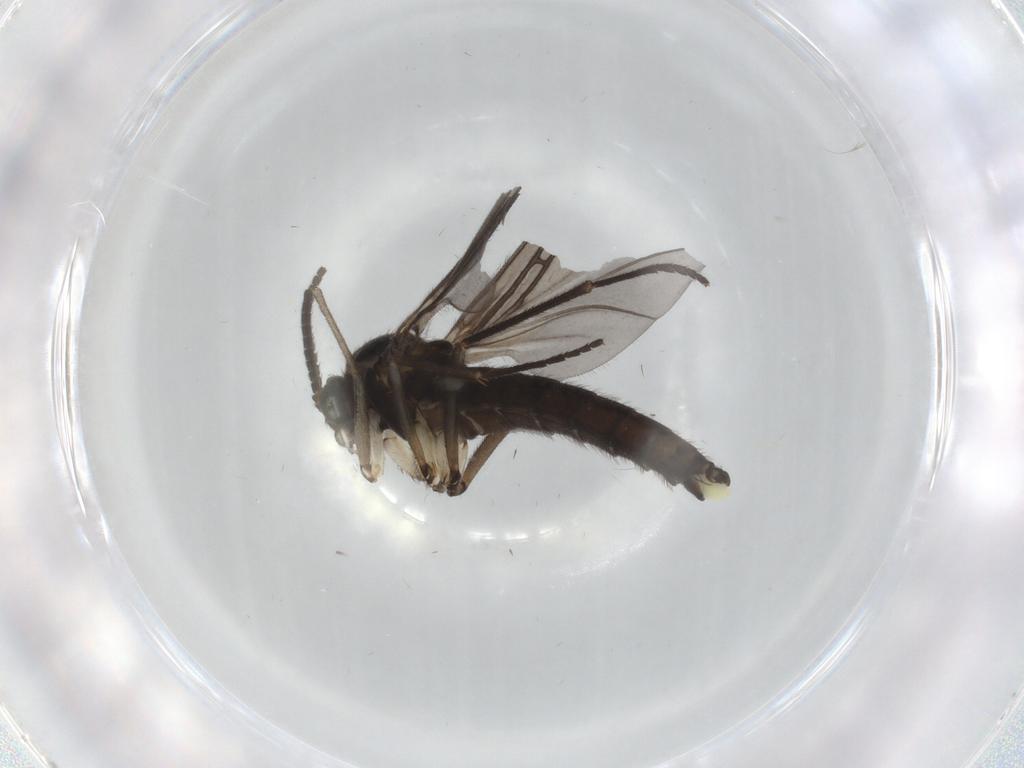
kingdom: Animalia
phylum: Arthropoda
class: Insecta
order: Diptera
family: Sciaridae
